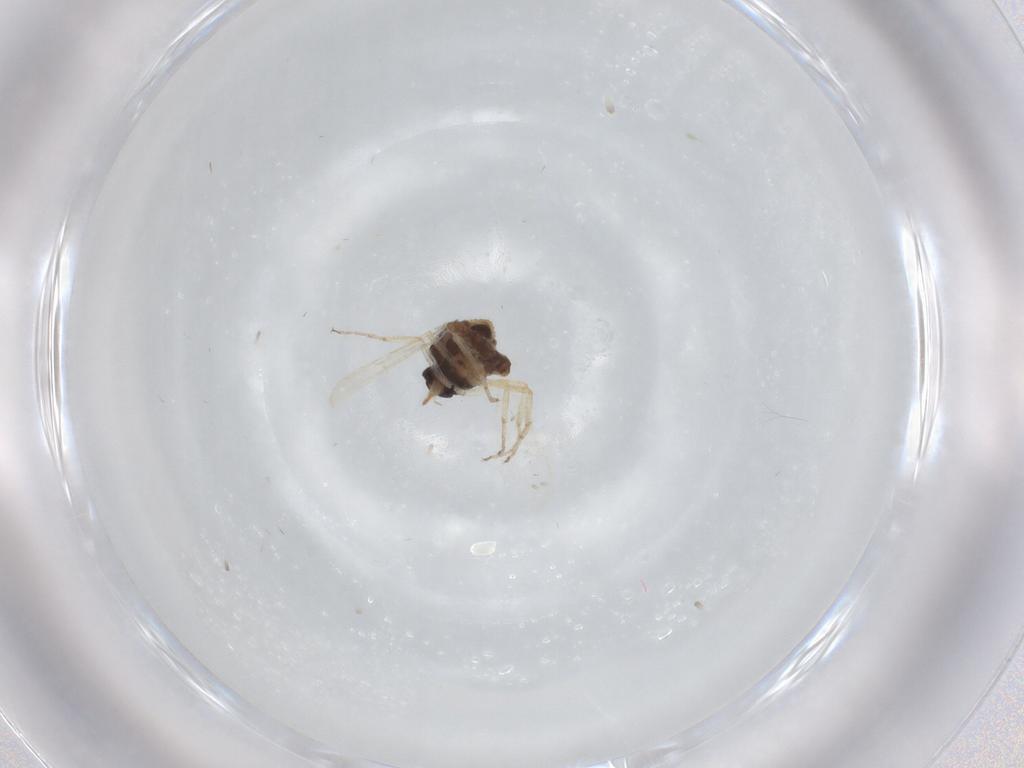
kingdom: Animalia
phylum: Arthropoda
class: Insecta
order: Diptera
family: Ceratopogonidae
